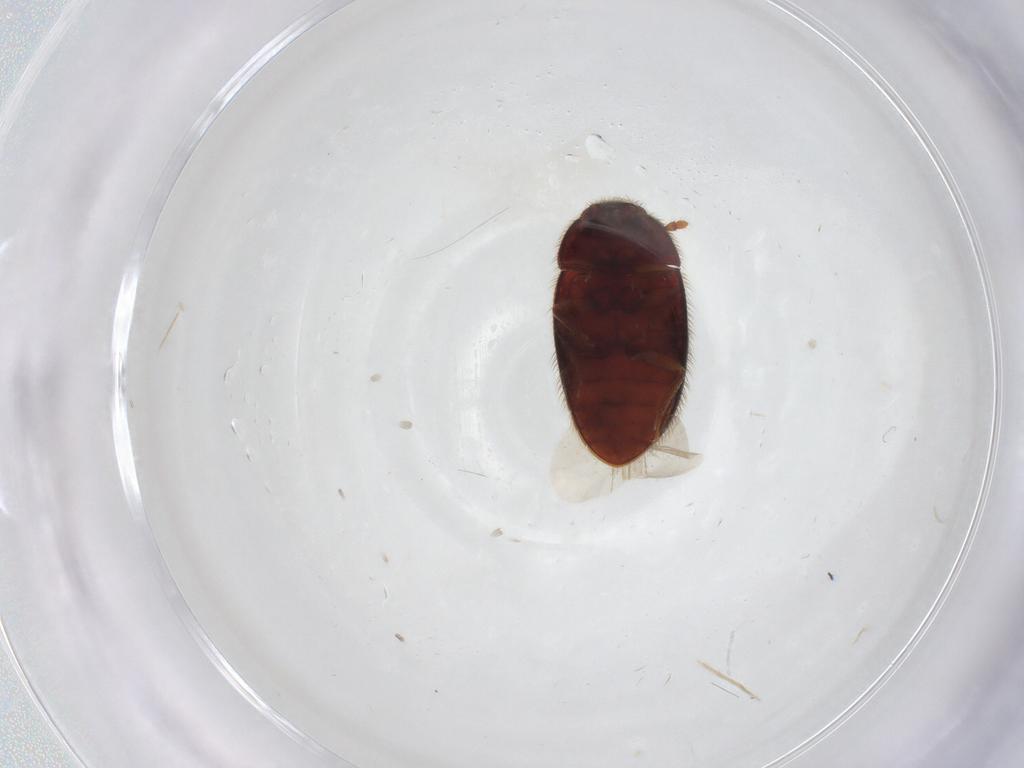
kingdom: Animalia
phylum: Arthropoda
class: Insecta
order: Coleoptera
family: Biphyllidae
